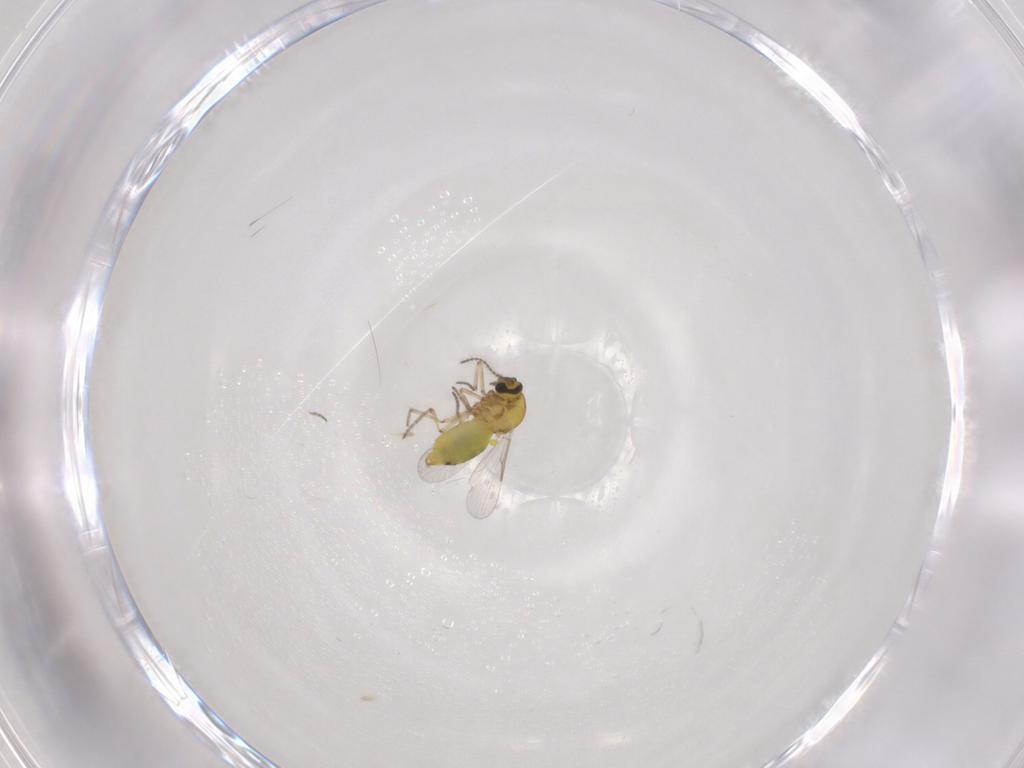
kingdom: Animalia
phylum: Arthropoda
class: Insecta
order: Diptera
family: Ceratopogonidae
